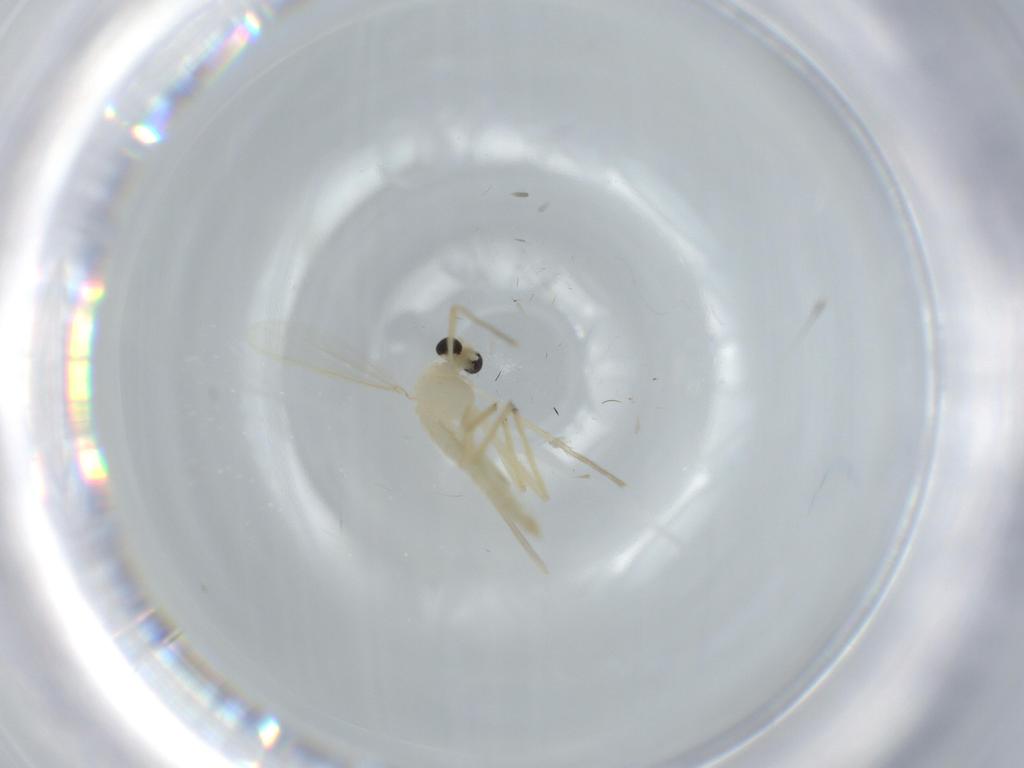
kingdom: Animalia
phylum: Arthropoda
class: Insecta
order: Diptera
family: Chironomidae
